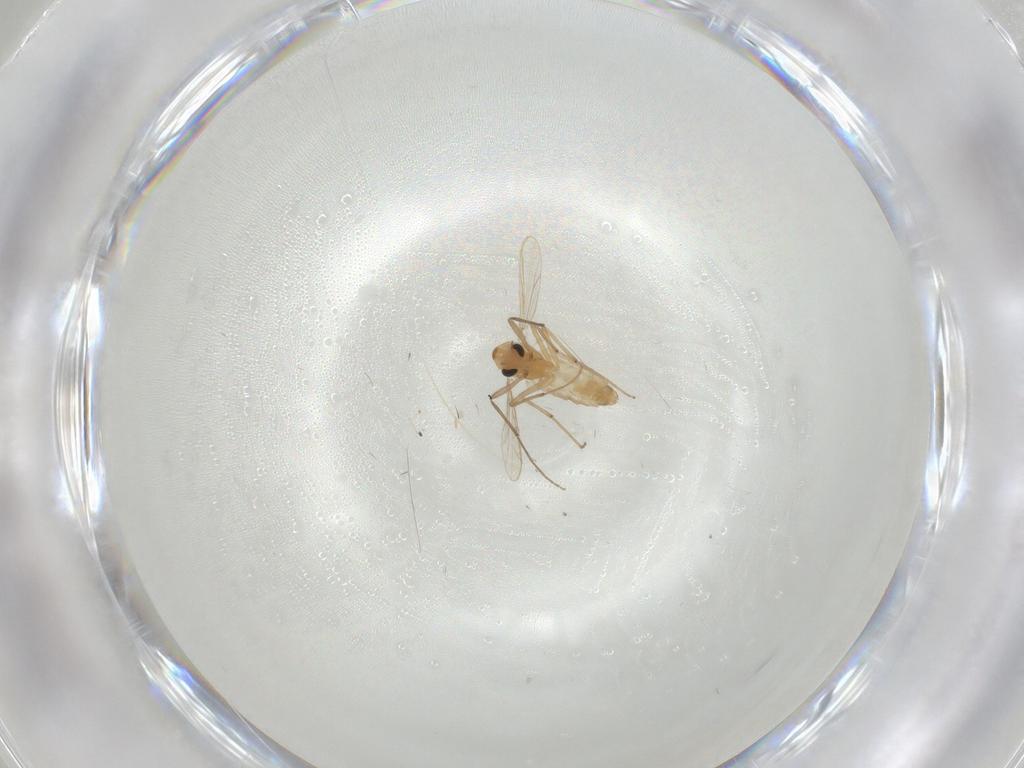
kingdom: Animalia
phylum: Arthropoda
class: Insecta
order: Diptera
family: Chironomidae
